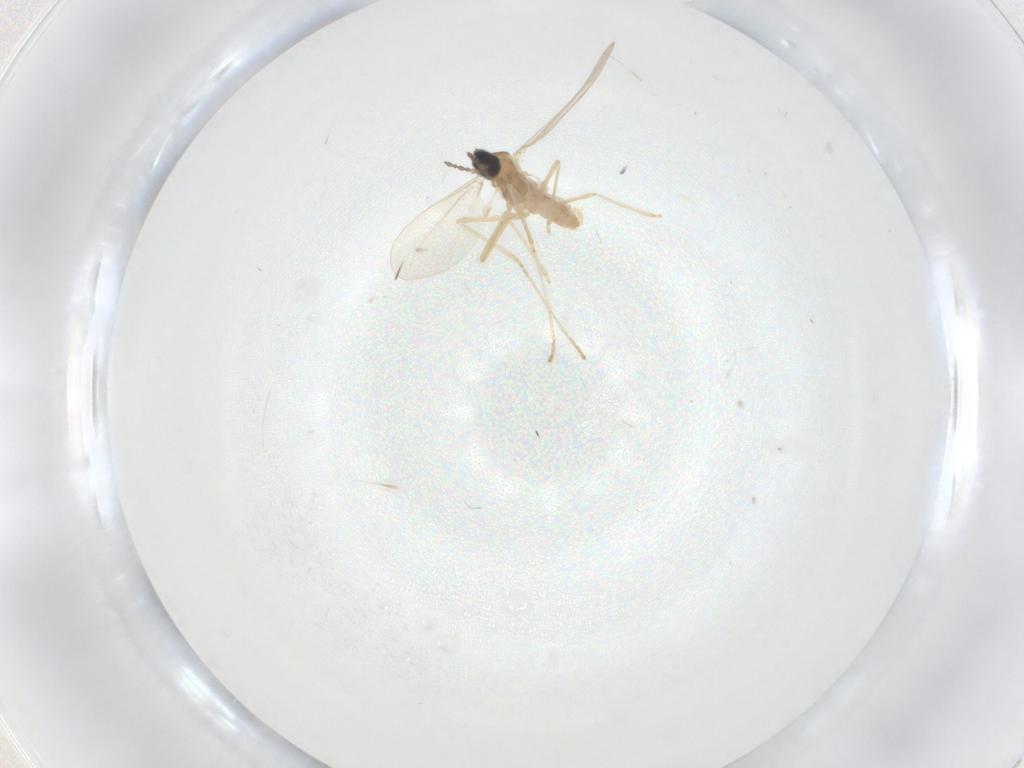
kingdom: Animalia
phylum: Arthropoda
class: Insecta
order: Diptera
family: Cecidomyiidae
